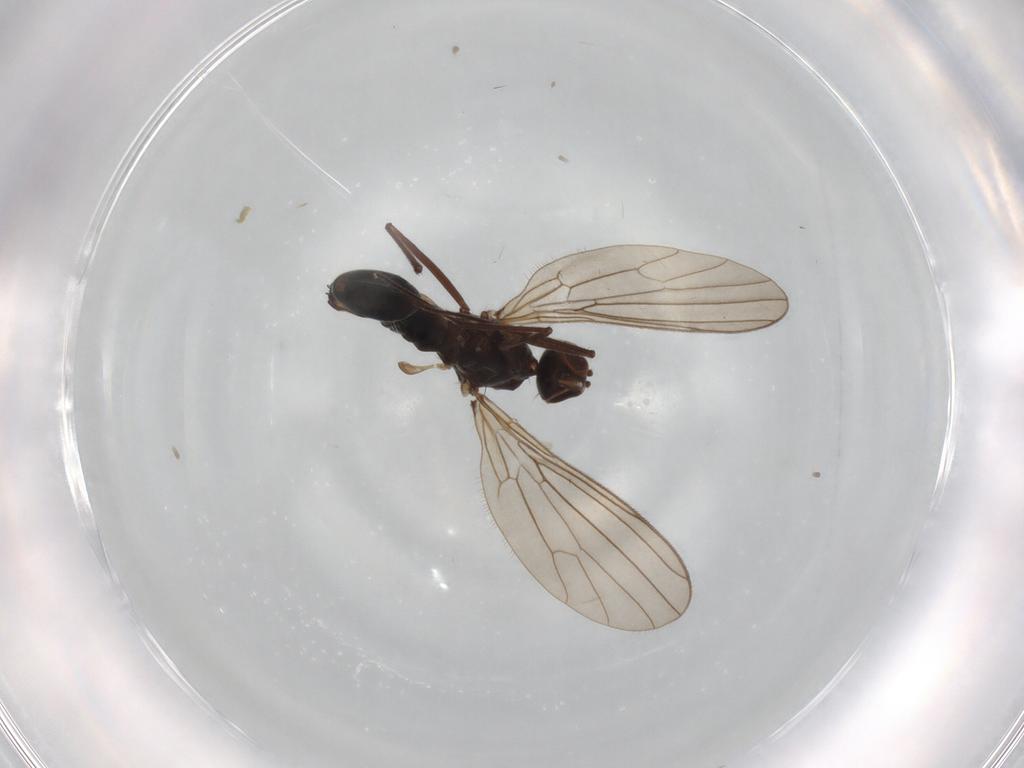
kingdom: Animalia
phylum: Arthropoda
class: Insecta
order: Diptera
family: Brachystomatidae
